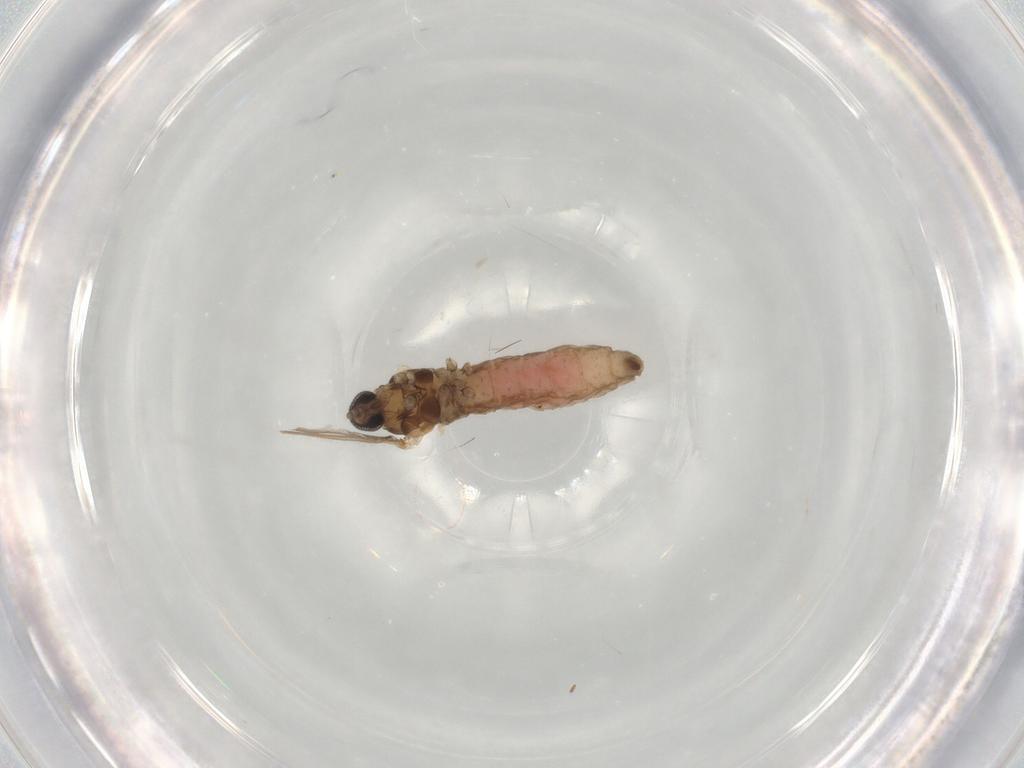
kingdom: Animalia
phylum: Arthropoda
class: Insecta
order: Diptera
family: Cecidomyiidae
